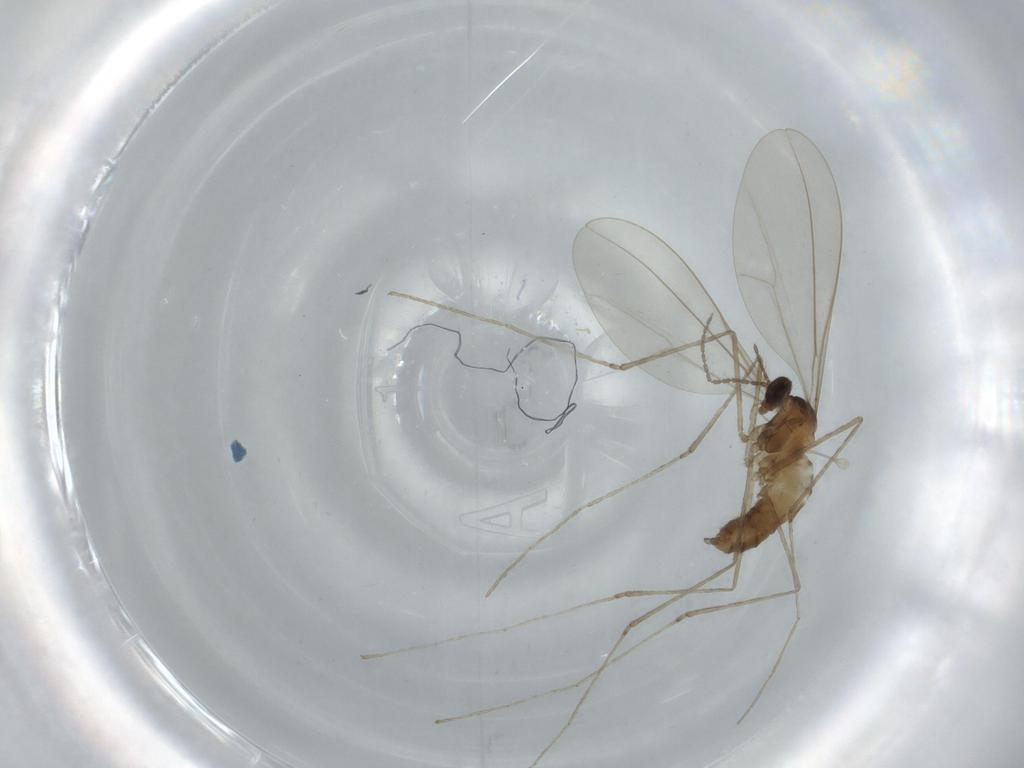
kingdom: Animalia
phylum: Arthropoda
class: Insecta
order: Diptera
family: Cecidomyiidae
